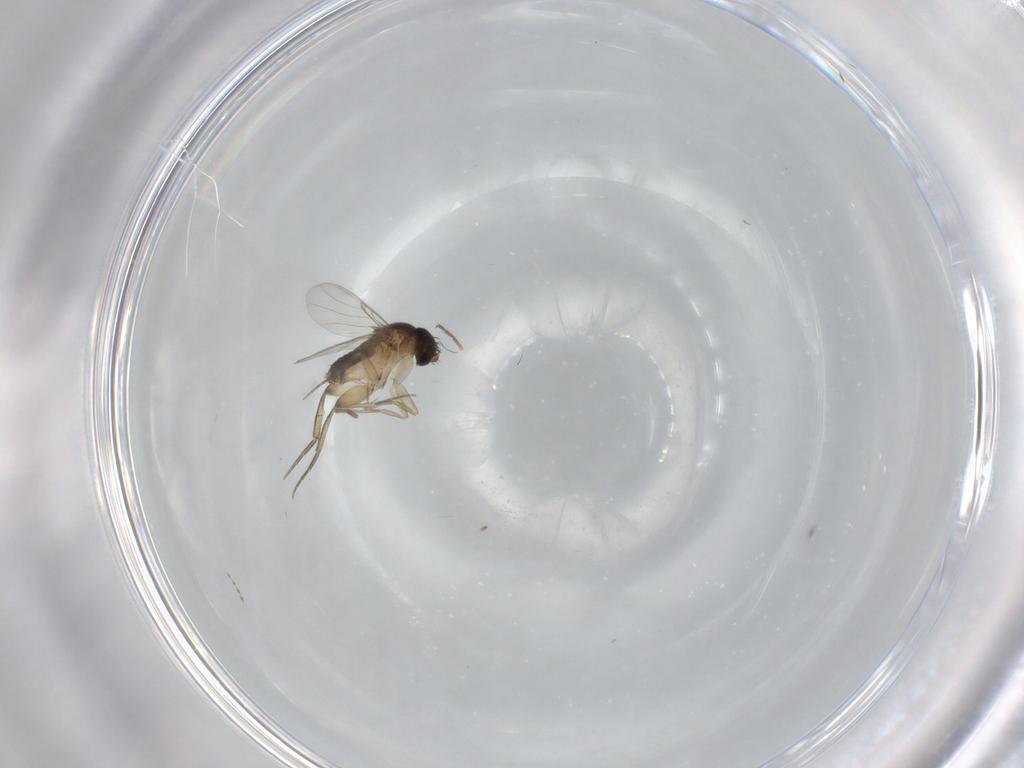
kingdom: Animalia
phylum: Arthropoda
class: Insecta
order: Diptera
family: Phoridae
